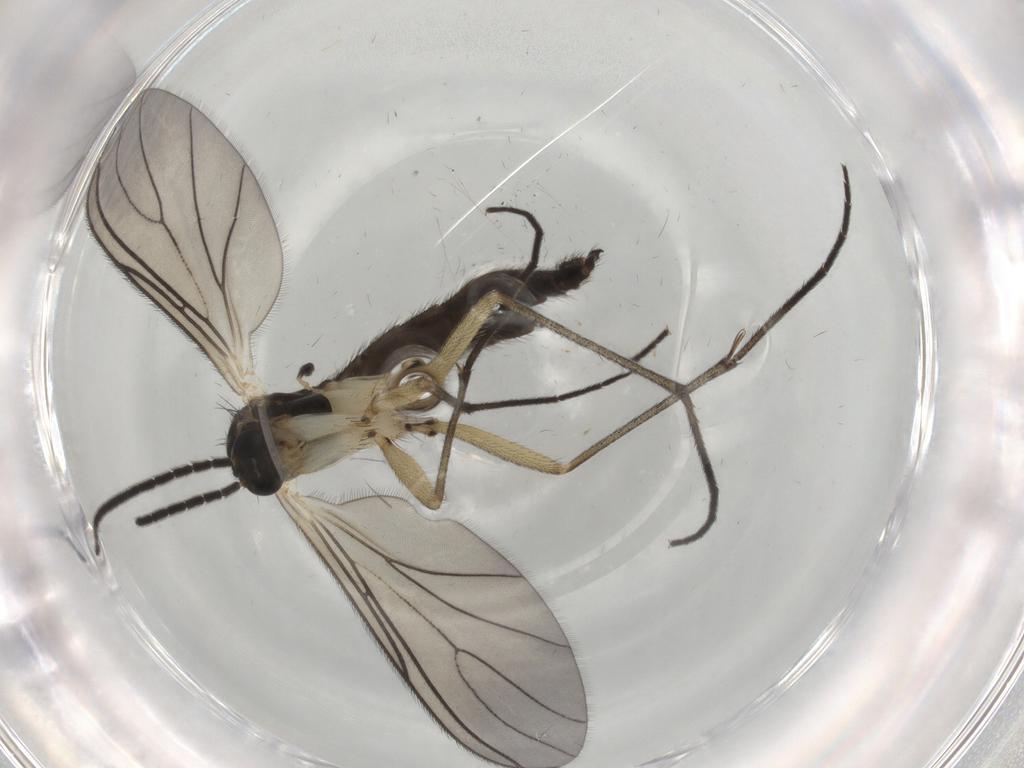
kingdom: Animalia
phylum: Arthropoda
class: Insecta
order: Diptera
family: Sciaridae
